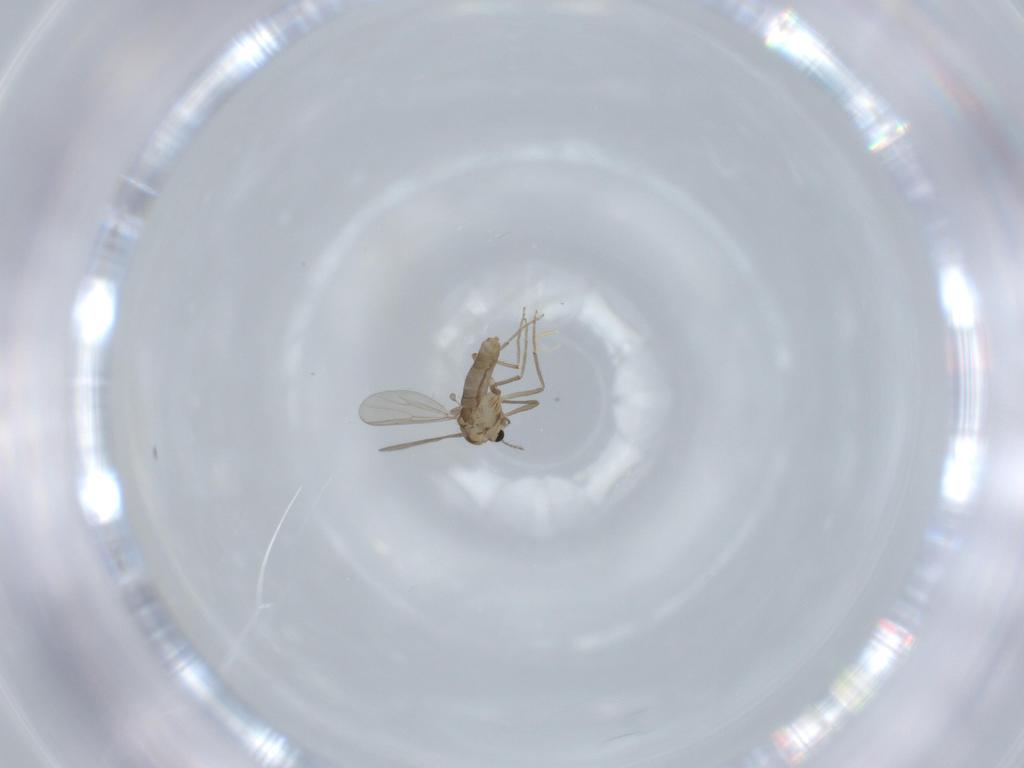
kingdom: Animalia
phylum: Arthropoda
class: Insecta
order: Diptera
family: Chironomidae
